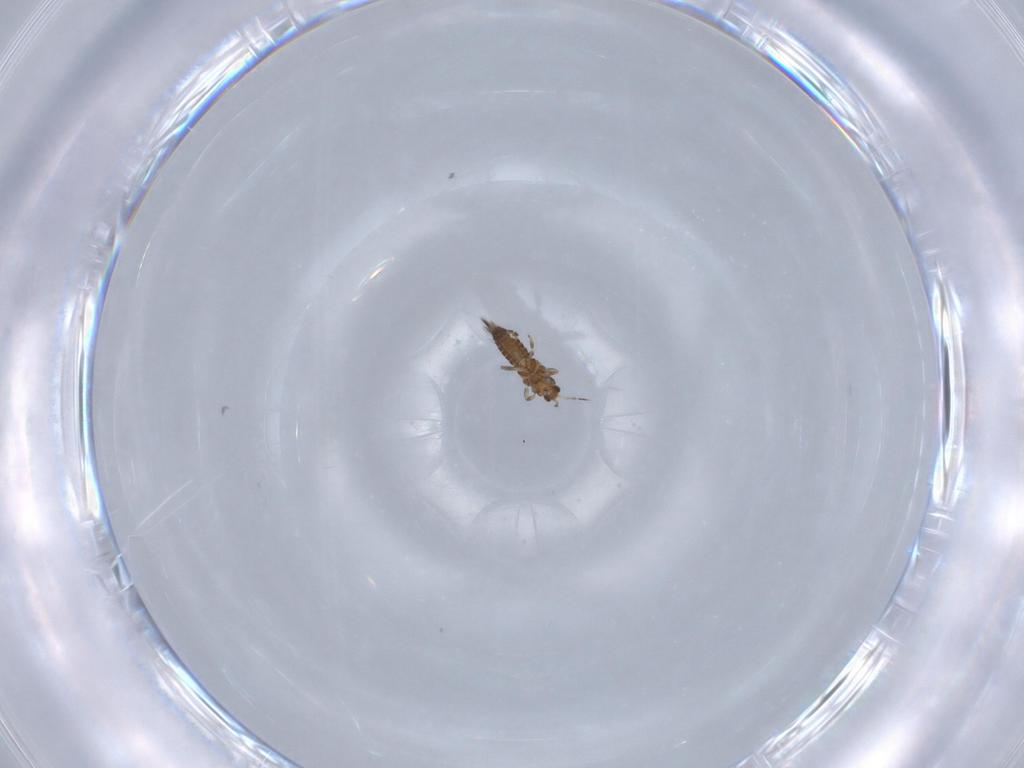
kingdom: Animalia
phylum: Arthropoda
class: Insecta
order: Thysanoptera
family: Thripidae
